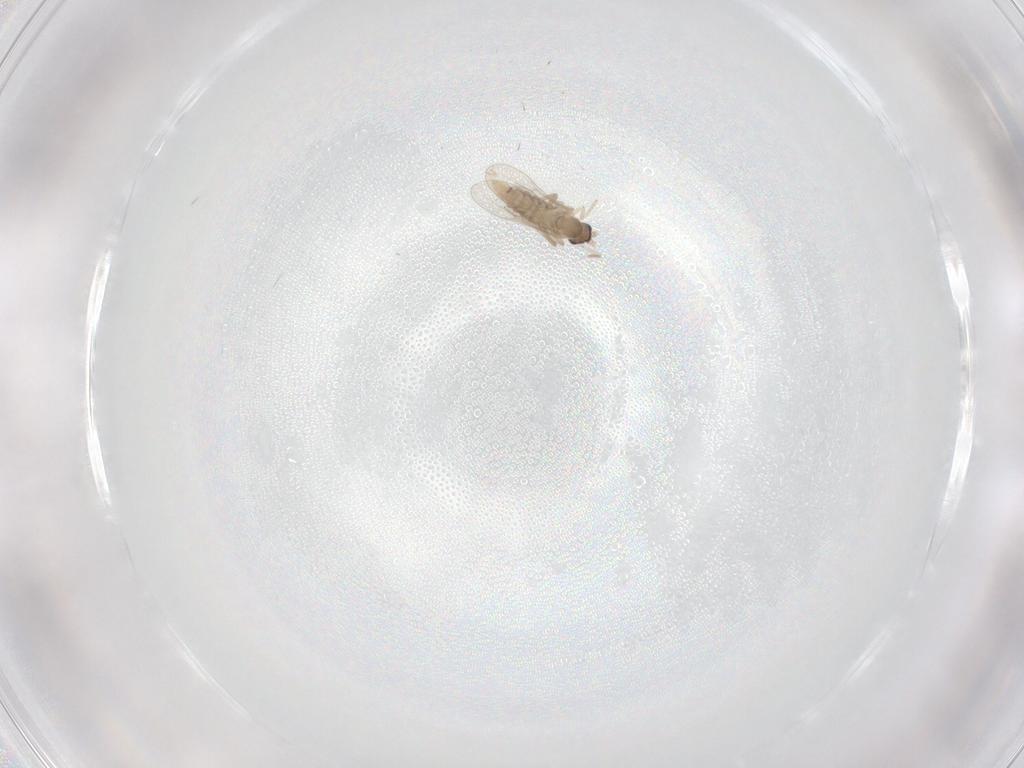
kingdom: Animalia
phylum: Arthropoda
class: Insecta
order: Diptera
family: Cecidomyiidae
